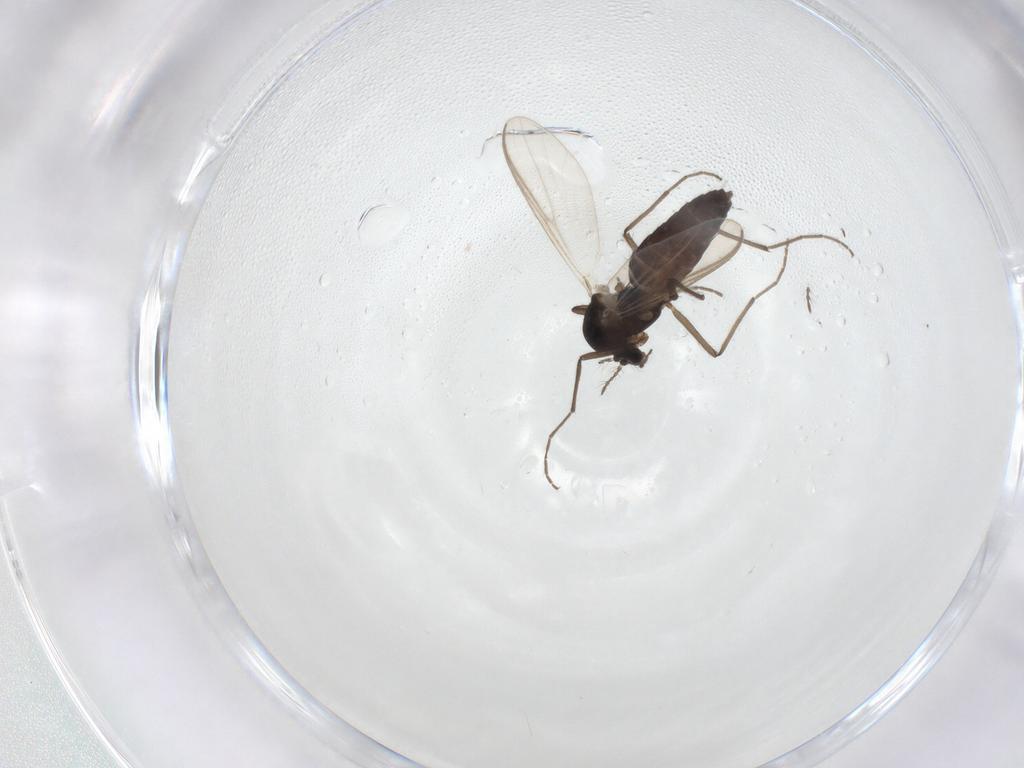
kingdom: Animalia
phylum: Arthropoda
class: Insecta
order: Diptera
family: Chironomidae
